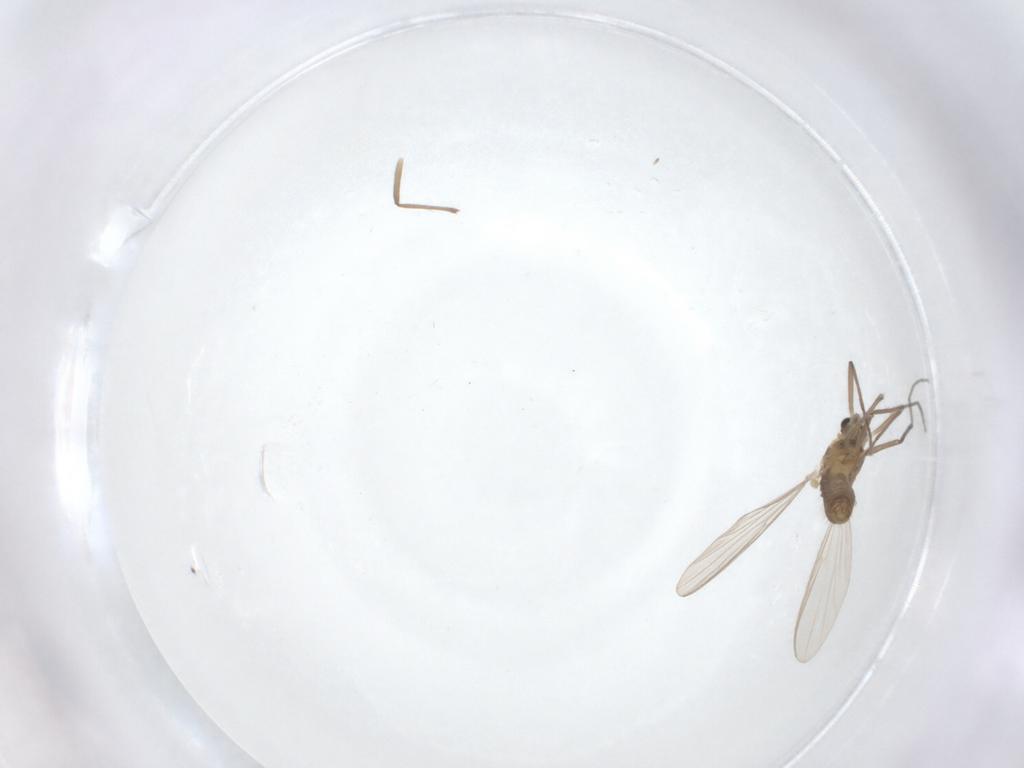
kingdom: Animalia
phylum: Arthropoda
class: Insecta
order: Diptera
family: Chironomidae
